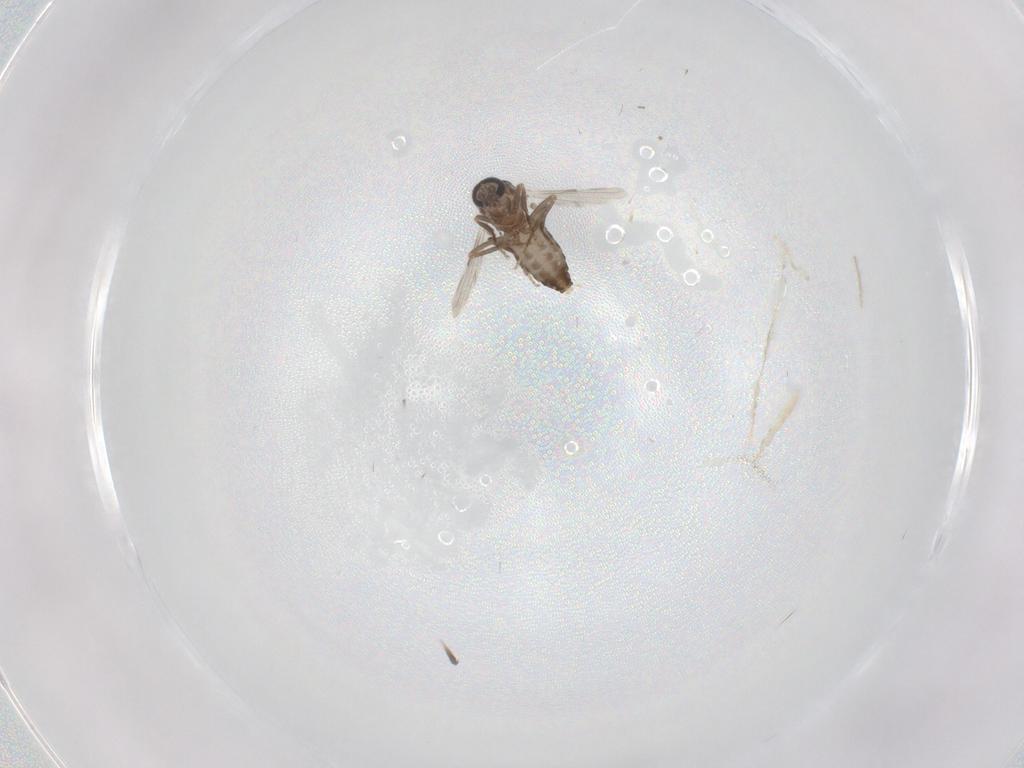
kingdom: Animalia
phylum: Arthropoda
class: Insecta
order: Diptera
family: Ceratopogonidae
